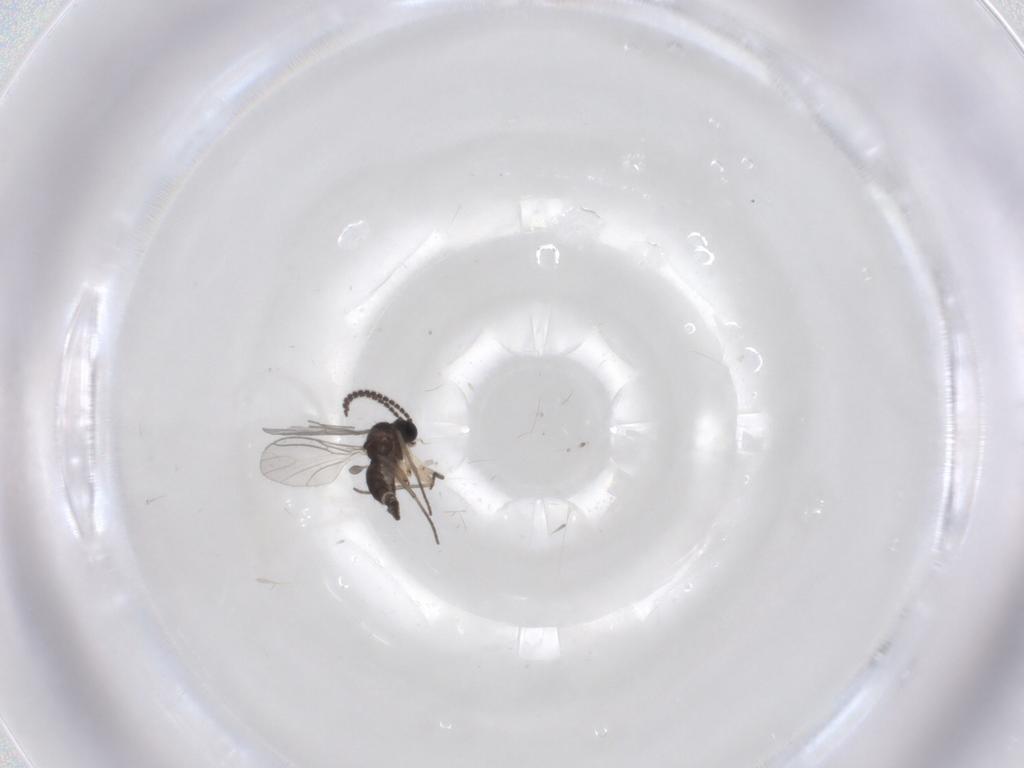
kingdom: Animalia
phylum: Arthropoda
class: Insecta
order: Diptera
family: Sciaridae
